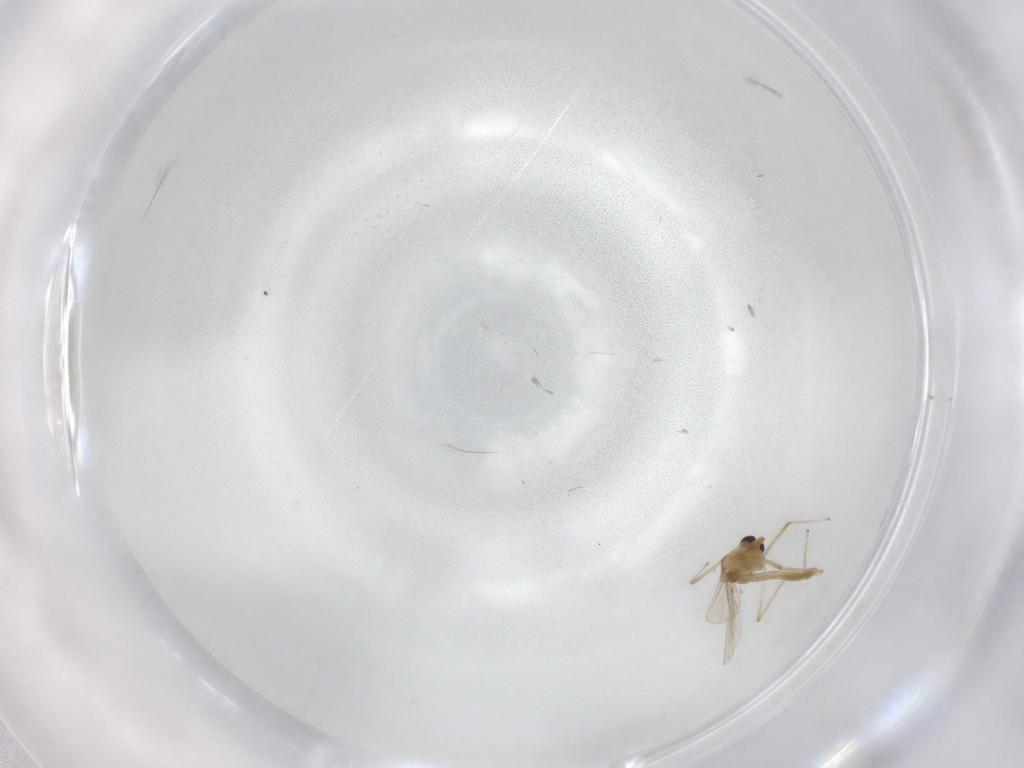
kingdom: Animalia
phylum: Arthropoda
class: Insecta
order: Diptera
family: Chironomidae
